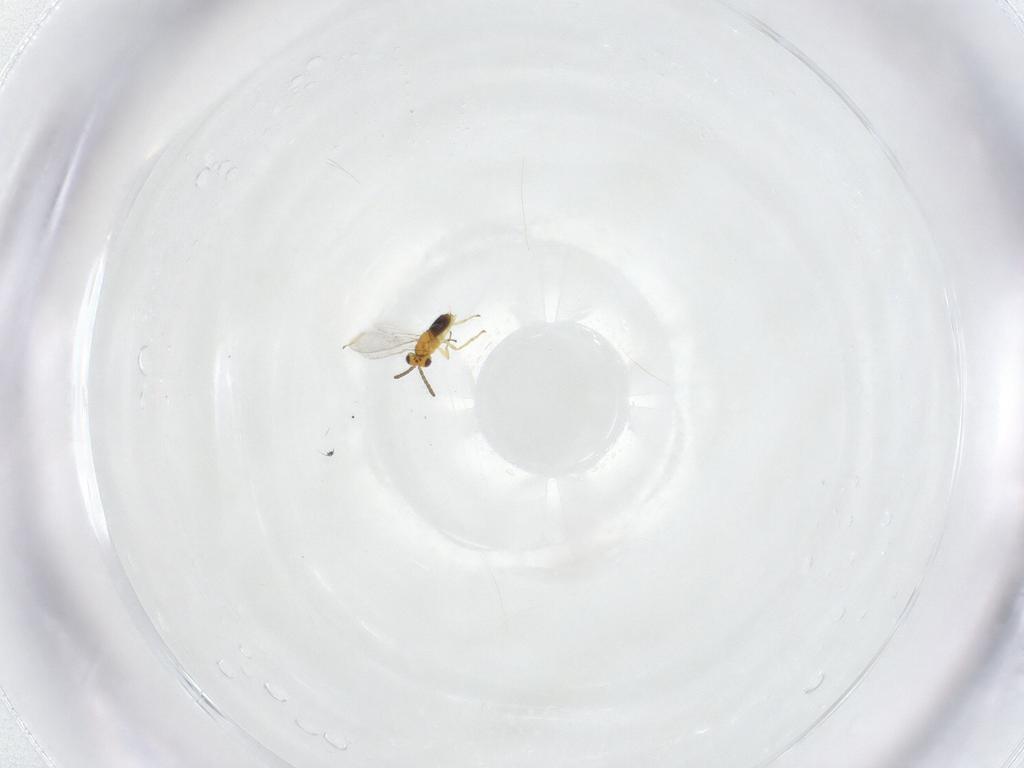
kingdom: Animalia
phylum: Arthropoda
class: Insecta
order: Hymenoptera
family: Aphelinidae
